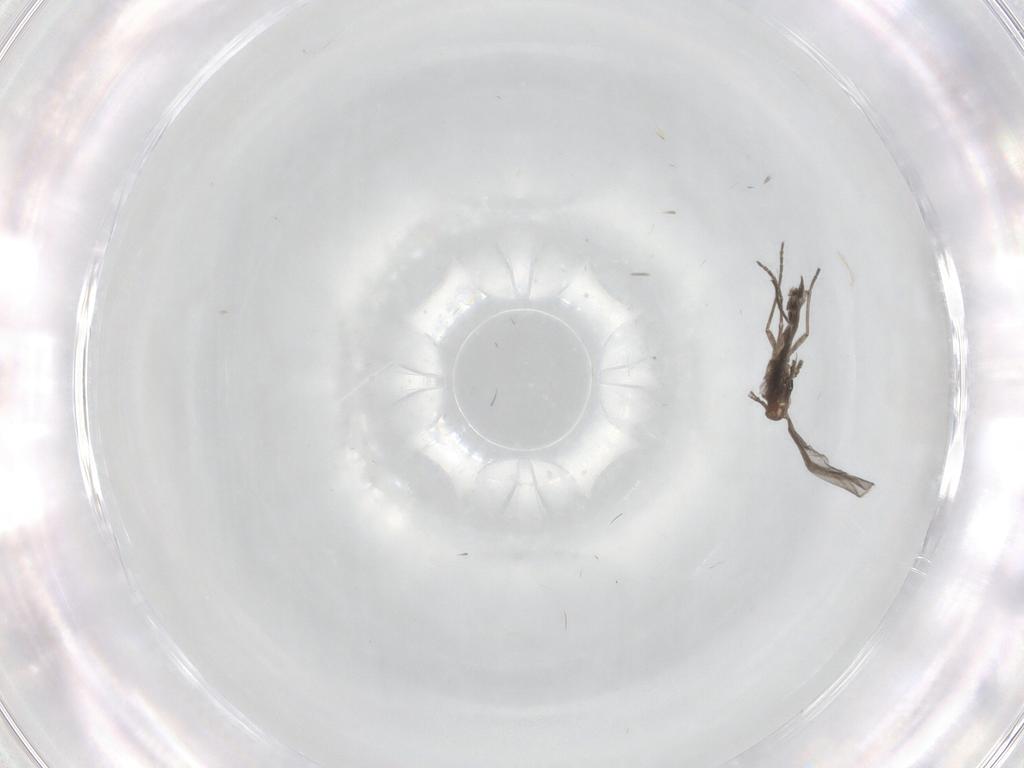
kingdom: Animalia
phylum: Arthropoda
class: Insecta
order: Diptera
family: Sciaridae
